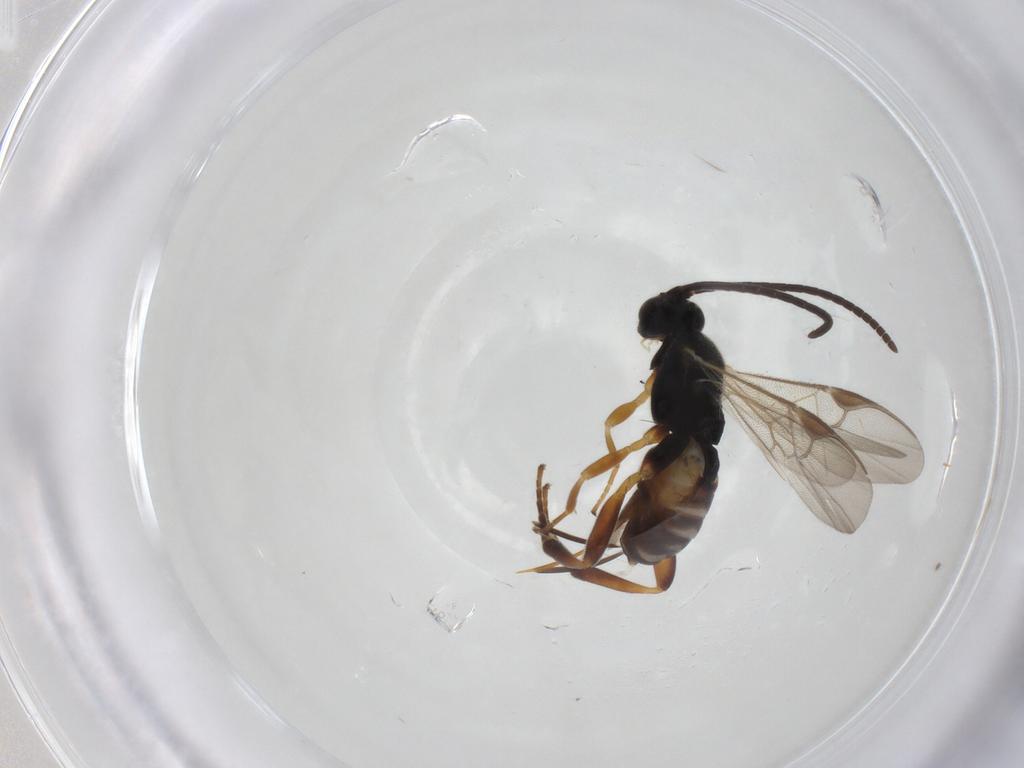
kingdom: Animalia
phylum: Arthropoda
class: Insecta
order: Hymenoptera
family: Braconidae
